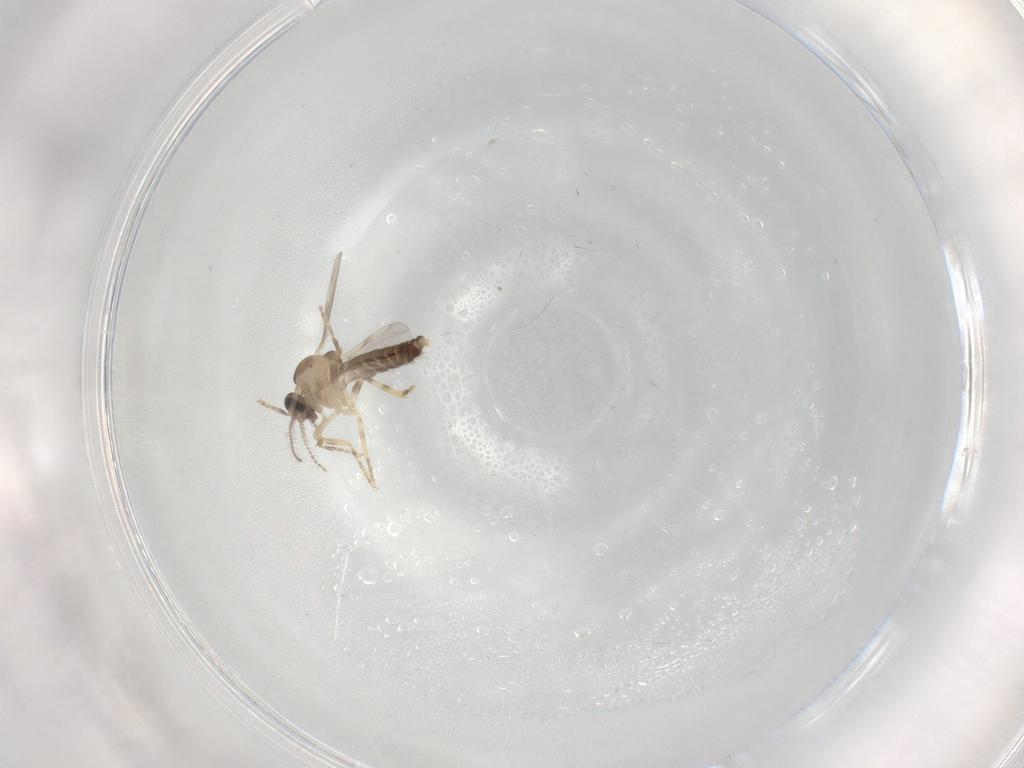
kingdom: Animalia
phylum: Arthropoda
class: Insecta
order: Diptera
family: Ceratopogonidae
